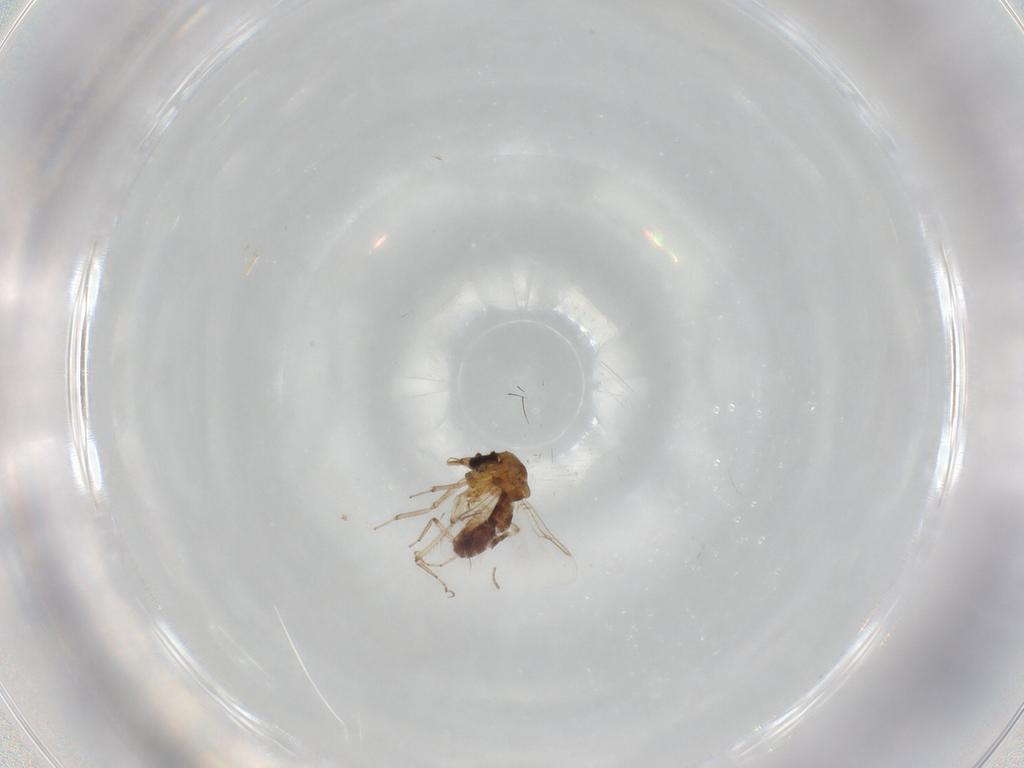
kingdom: Animalia
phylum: Arthropoda
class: Insecta
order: Diptera
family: Ceratopogonidae
